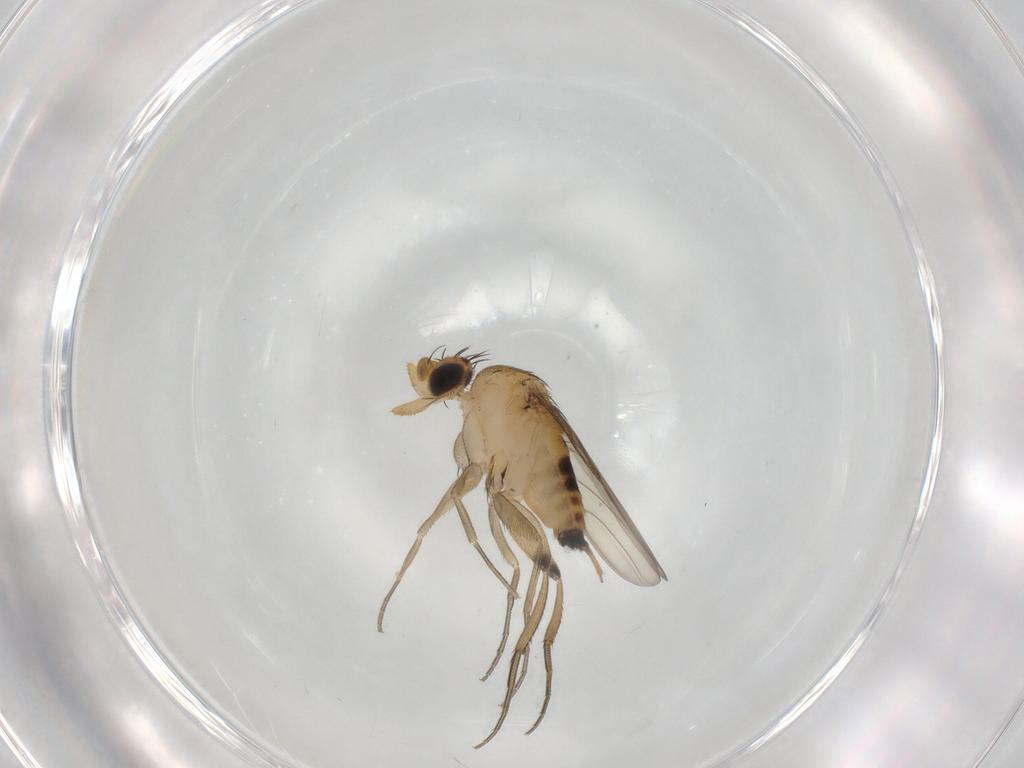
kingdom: Animalia
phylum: Arthropoda
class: Insecta
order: Diptera
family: Phoridae
